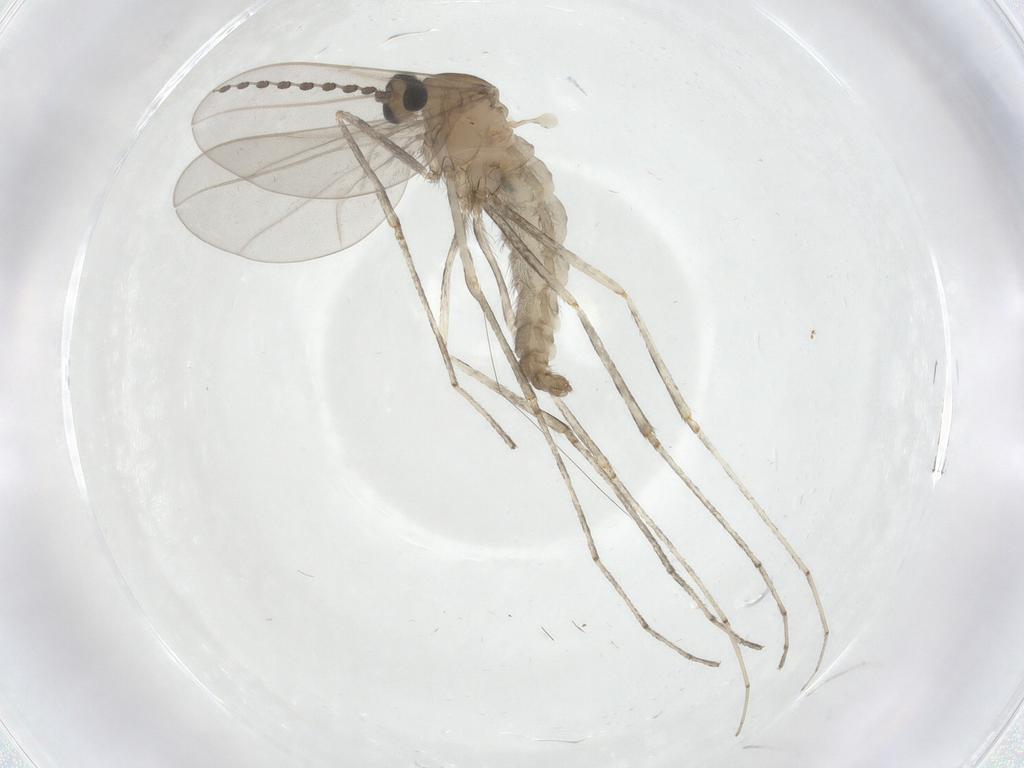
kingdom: Animalia
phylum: Arthropoda
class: Insecta
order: Diptera
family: Cecidomyiidae
